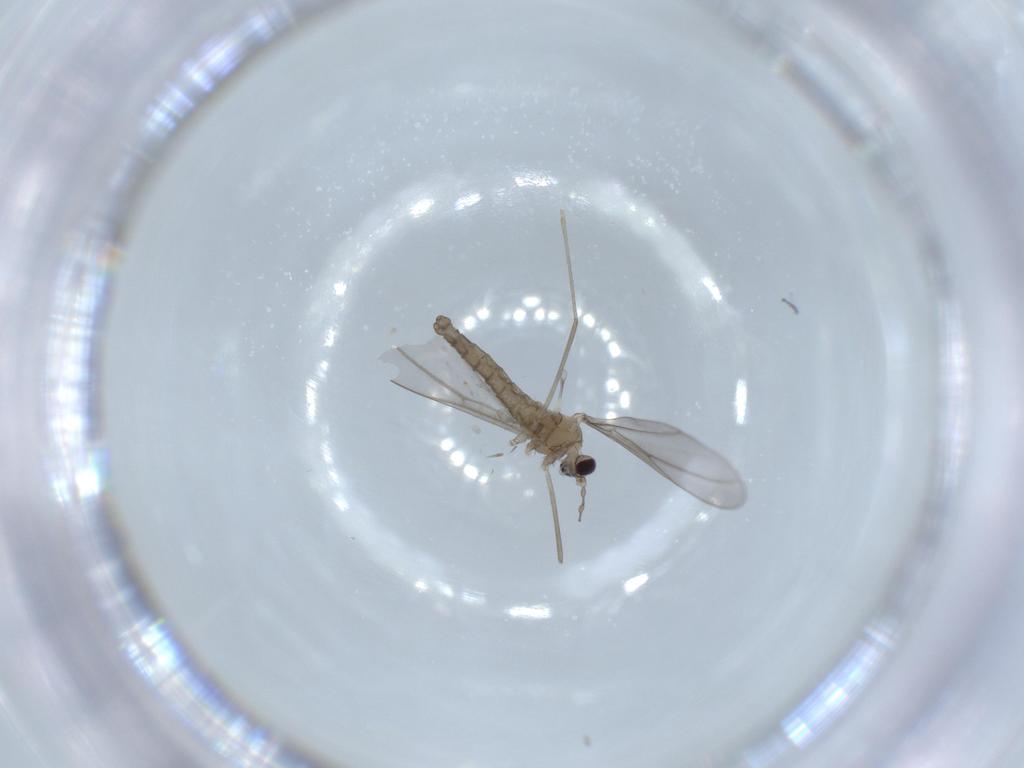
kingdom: Animalia
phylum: Arthropoda
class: Insecta
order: Diptera
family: Cecidomyiidae
